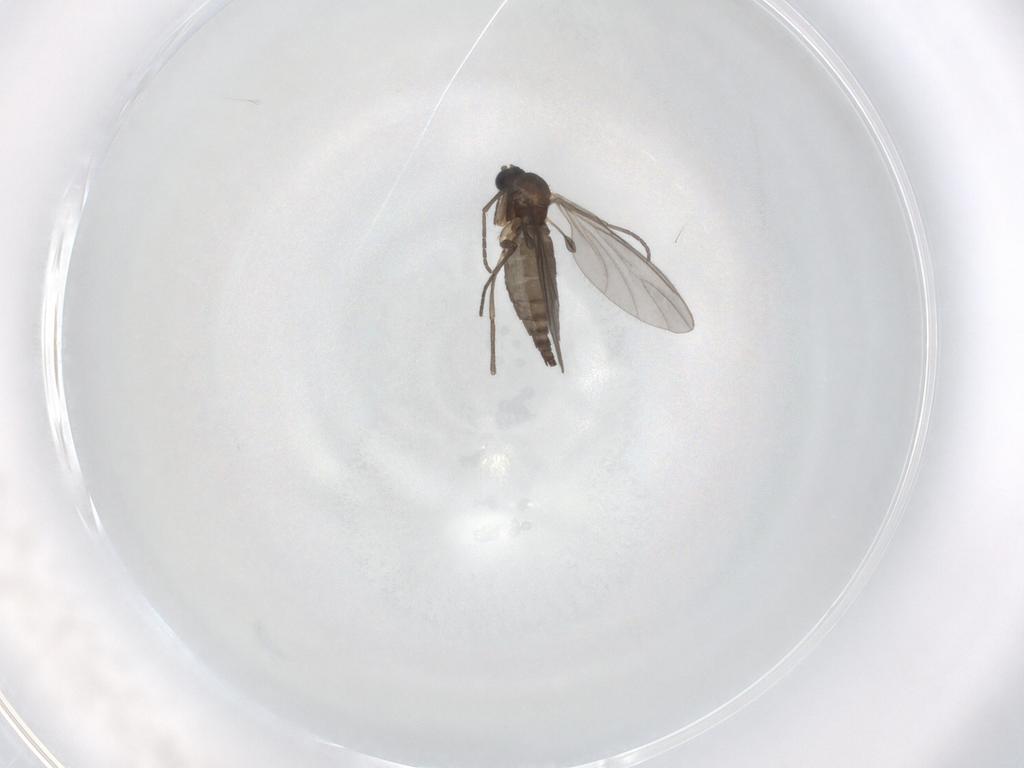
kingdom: Animalia
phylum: Arthropoda
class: Insecta
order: Diptera
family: Sciaridae
